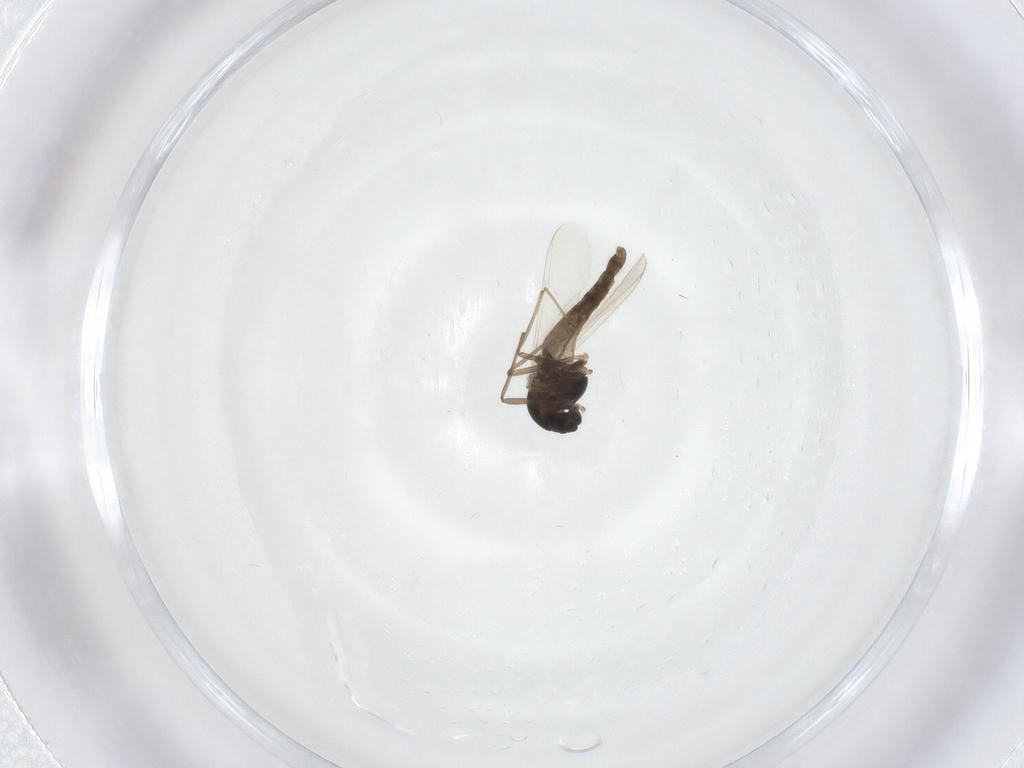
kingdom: Animalia
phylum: Arthropoda
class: Insecta
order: Diptera
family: Chironomidae
